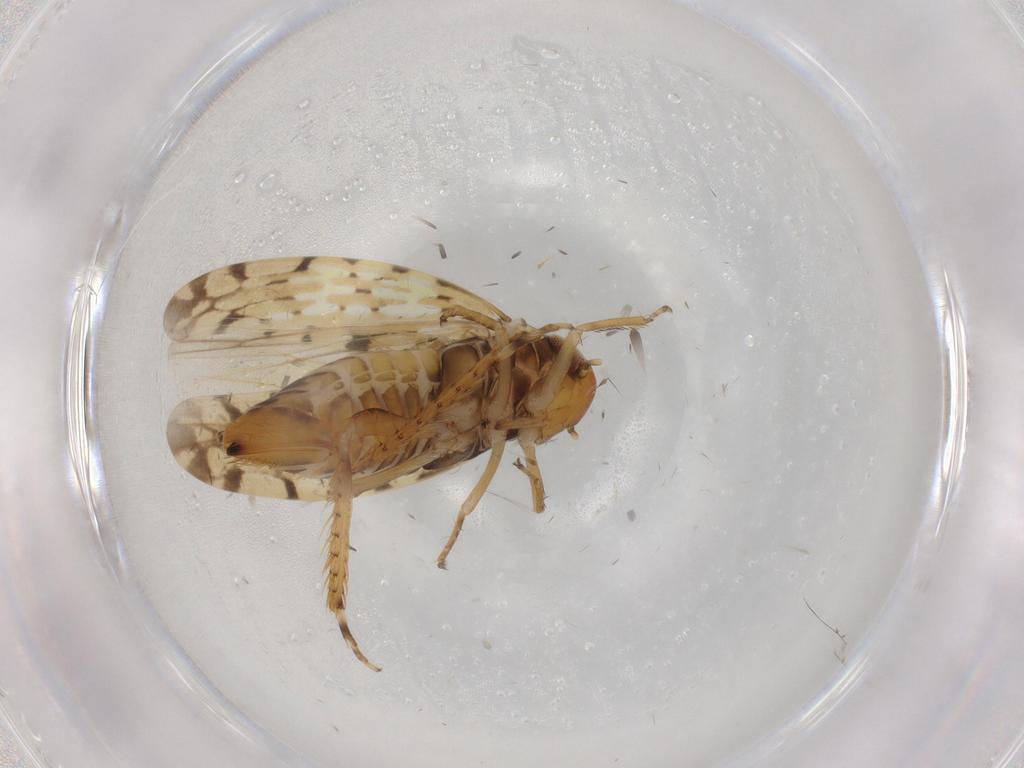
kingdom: Animalia
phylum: Arthropoda
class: Insecta
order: Hemiptera
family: Cicadellidae
